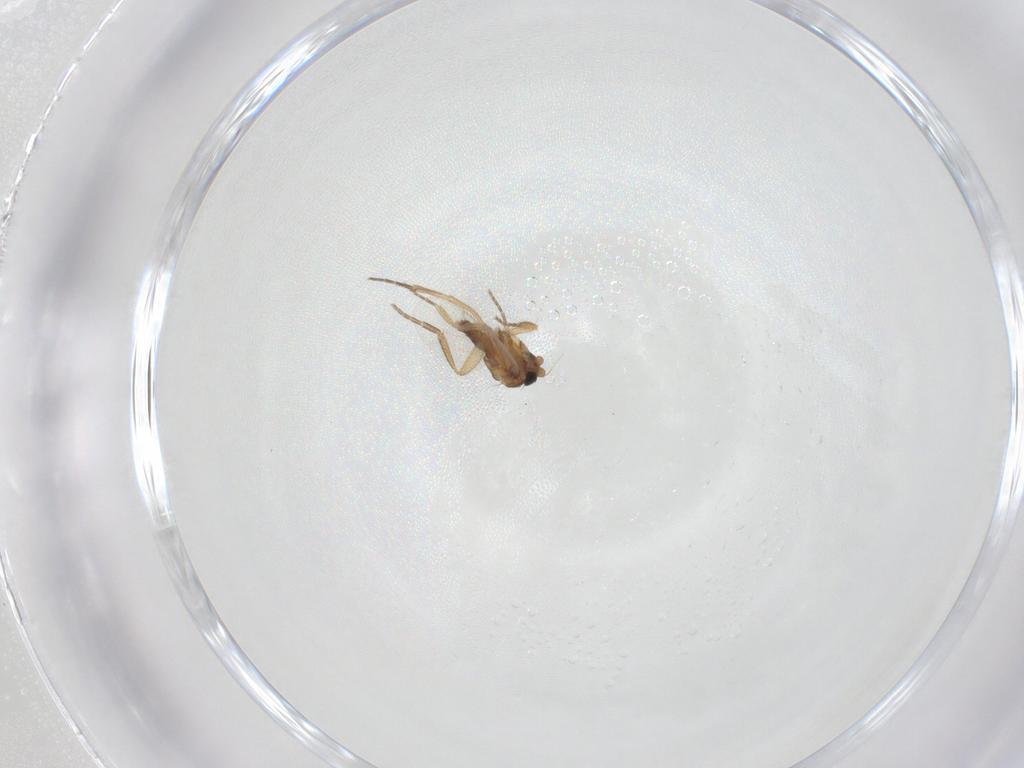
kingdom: Animalia
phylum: Arthropoda
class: Insecta
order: Diptera
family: Phoridae
